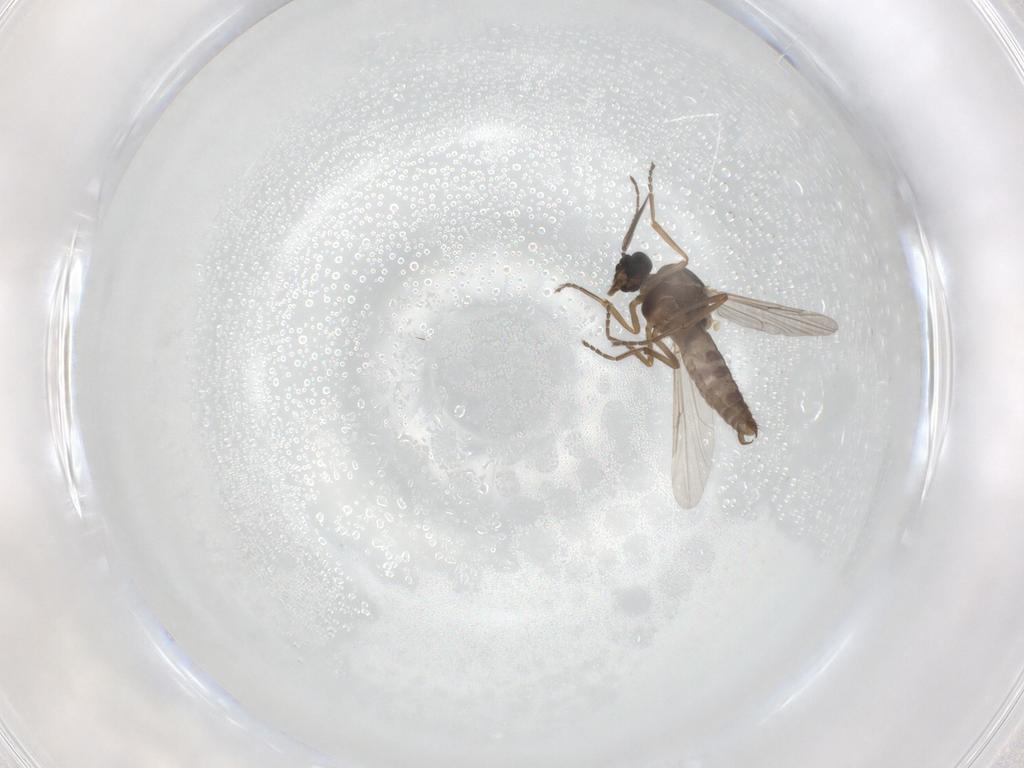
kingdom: Animalia
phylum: Arthropoda
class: Insecta
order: Diptera
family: Ceratopogonidae
